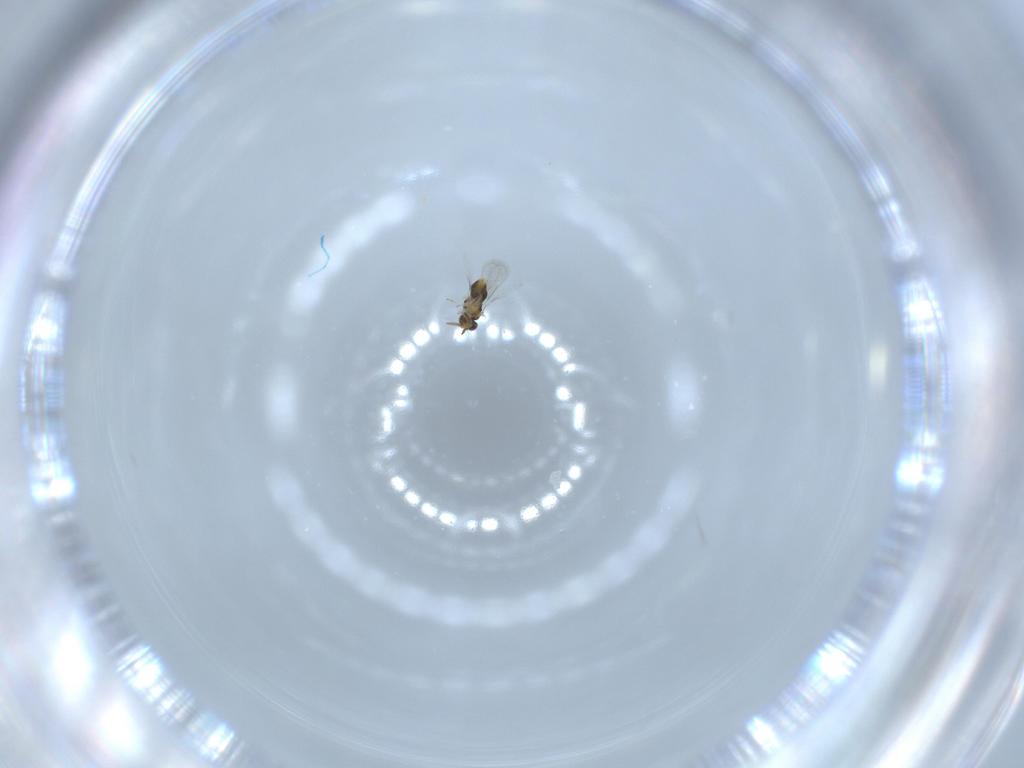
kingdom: Animalia
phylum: Arthropoda
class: Insecta
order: Hymenoptera
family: Aphelinidae
